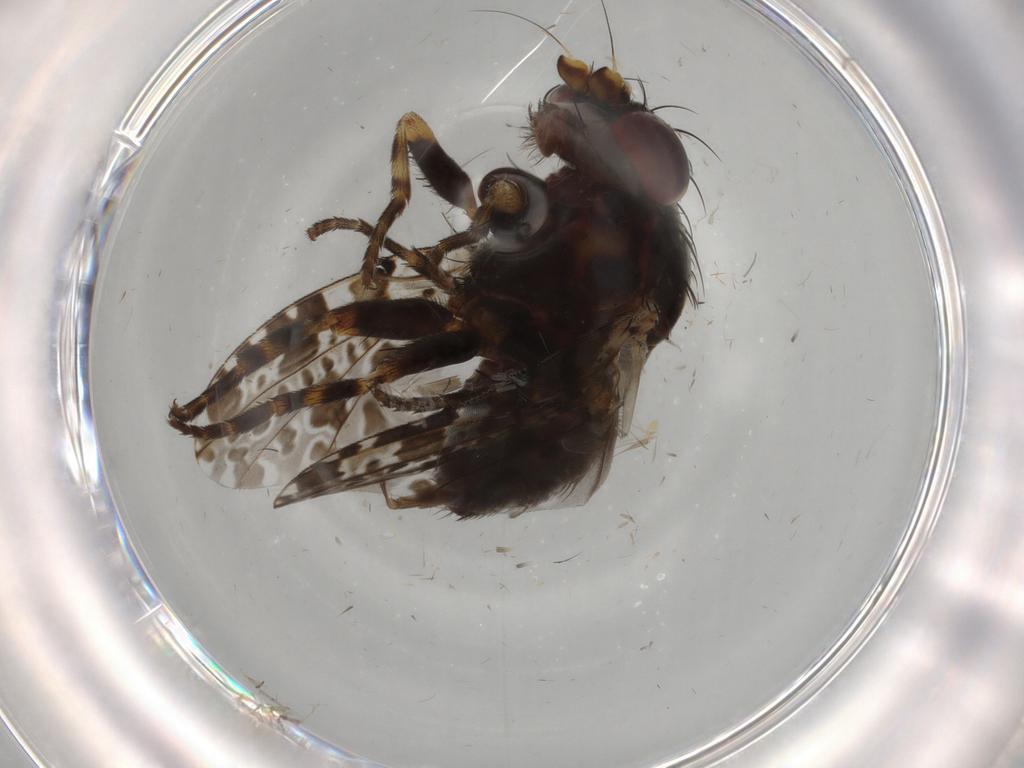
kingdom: Animalia
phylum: Arthropoda
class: Insecta
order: Diptera
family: Odiniidae
